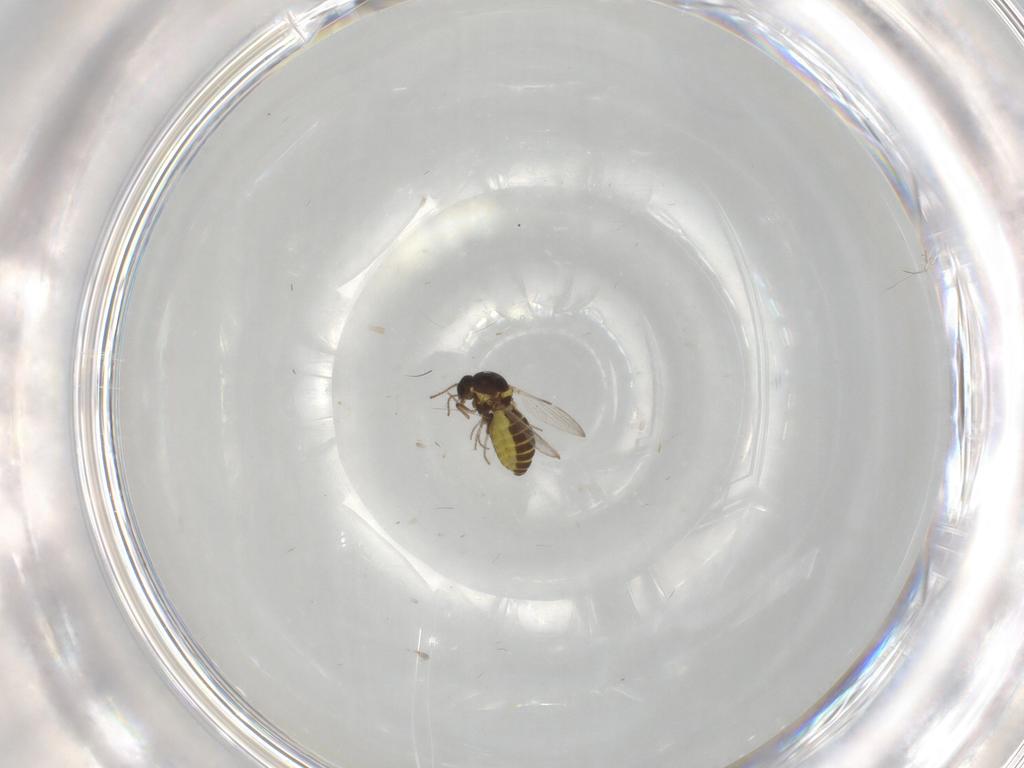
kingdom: Animalia
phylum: Arthropoda
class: Insecta
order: Diptera
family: Ceratopogonidae
